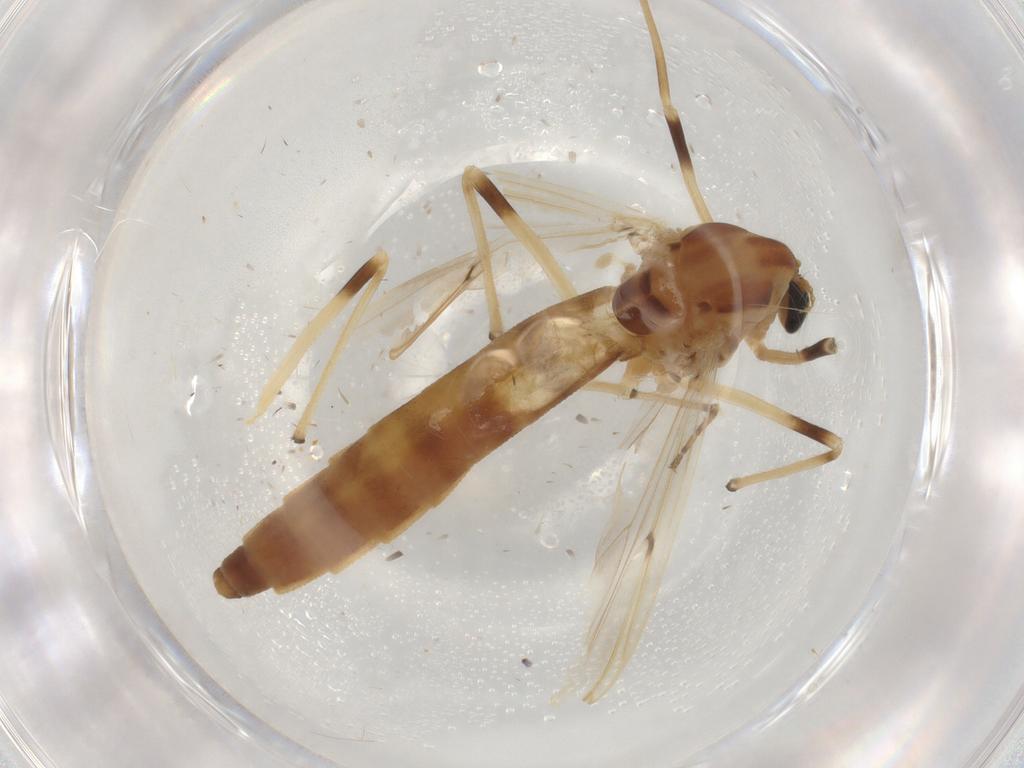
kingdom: Animalia
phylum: Arthropoda
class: Insecta
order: Diptera
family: Muscidae
